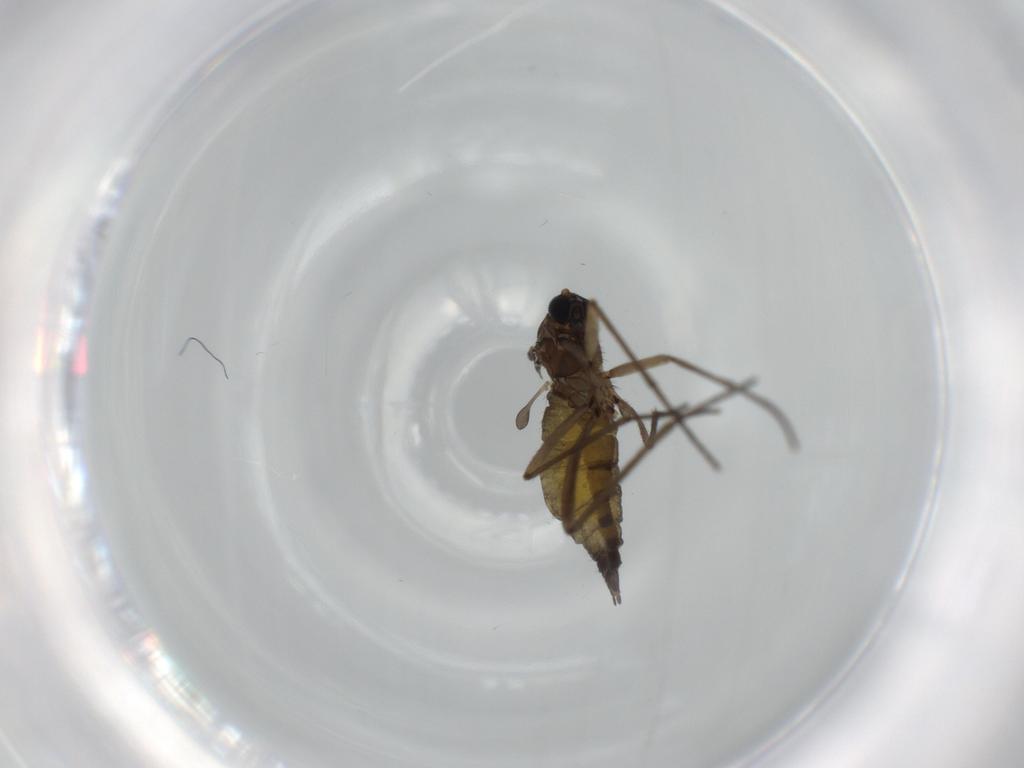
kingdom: Animalia
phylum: Arthropoda
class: Insecta
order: Diptera
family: Sciaridae
